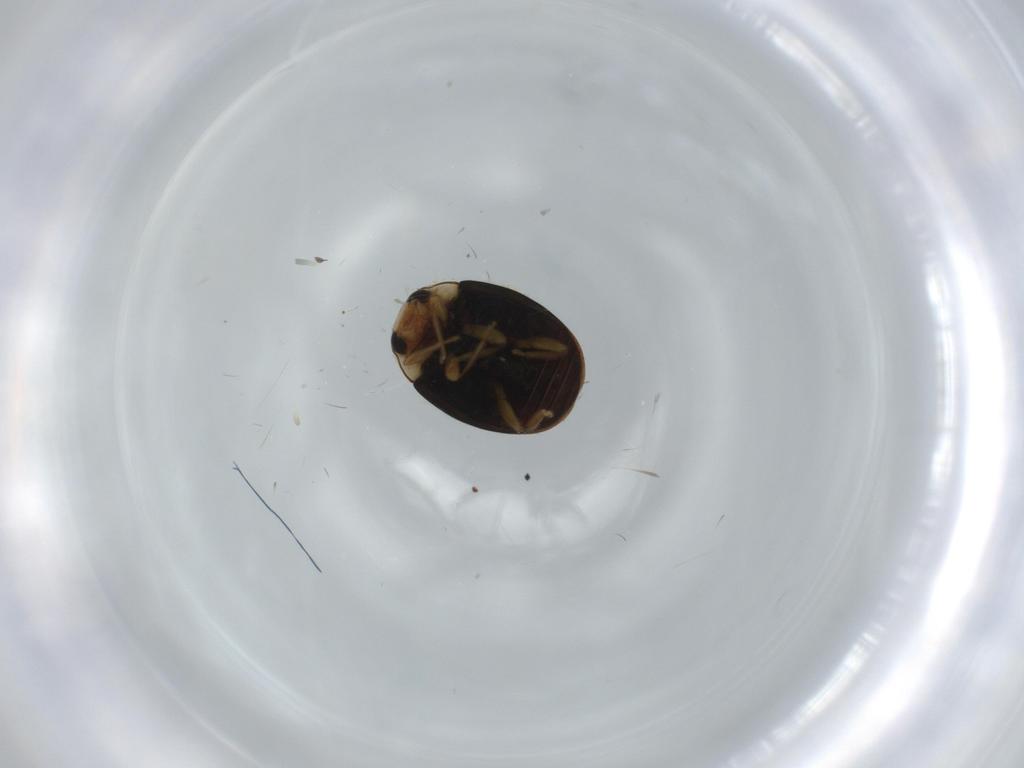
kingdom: Animalia
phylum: Arthropoda
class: Insecta
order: Coleoptera
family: Coccinellidae
